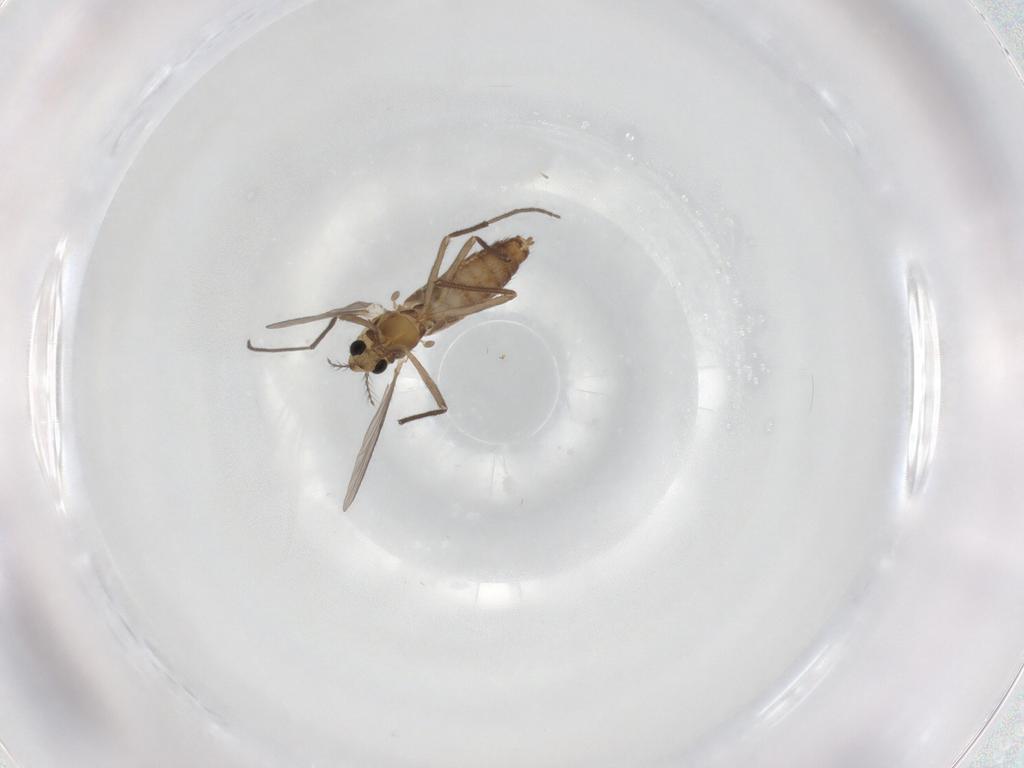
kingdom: Animalia
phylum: Arthropoda
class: Insecta
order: Diptera
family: Chironomidae
